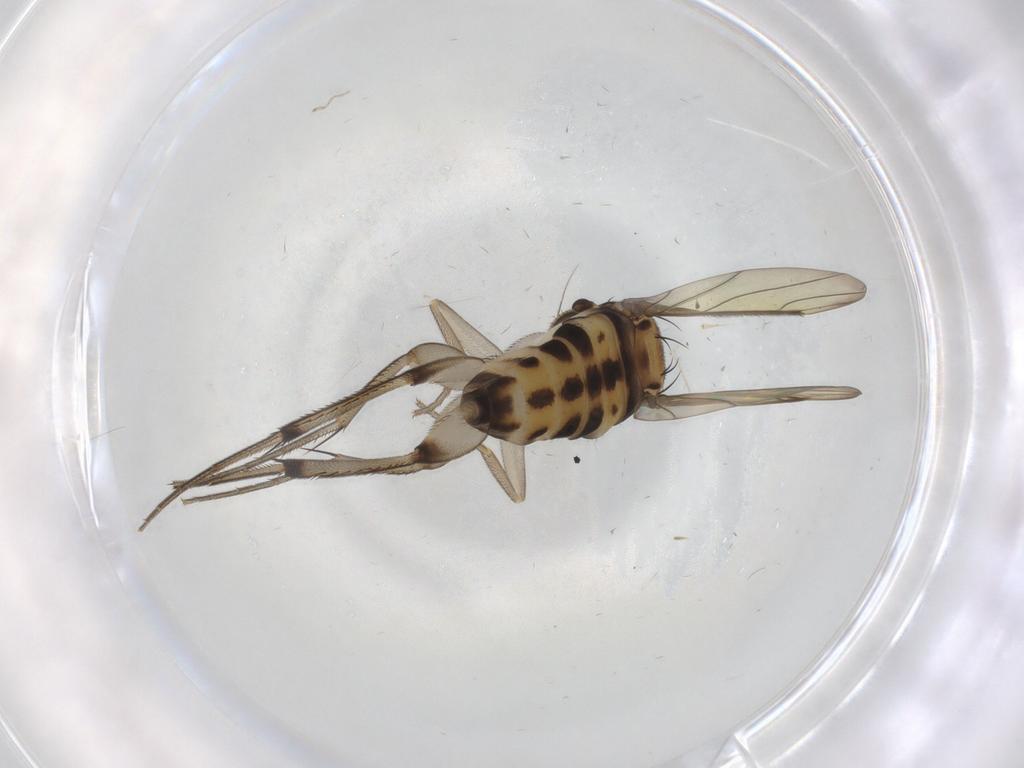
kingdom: Animalia
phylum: Arthropoda
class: Insecta
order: Diptera
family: Phoridae
